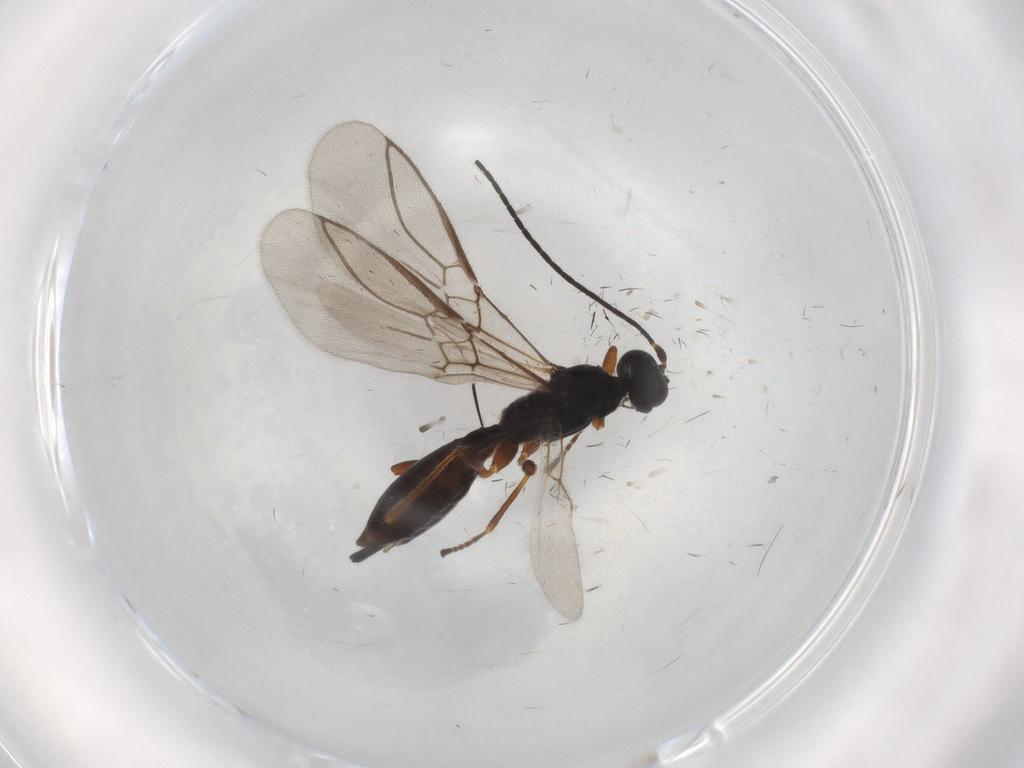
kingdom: Animalia
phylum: Arthropoda
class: Insecta
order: Hymenoptera
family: Braconidae
